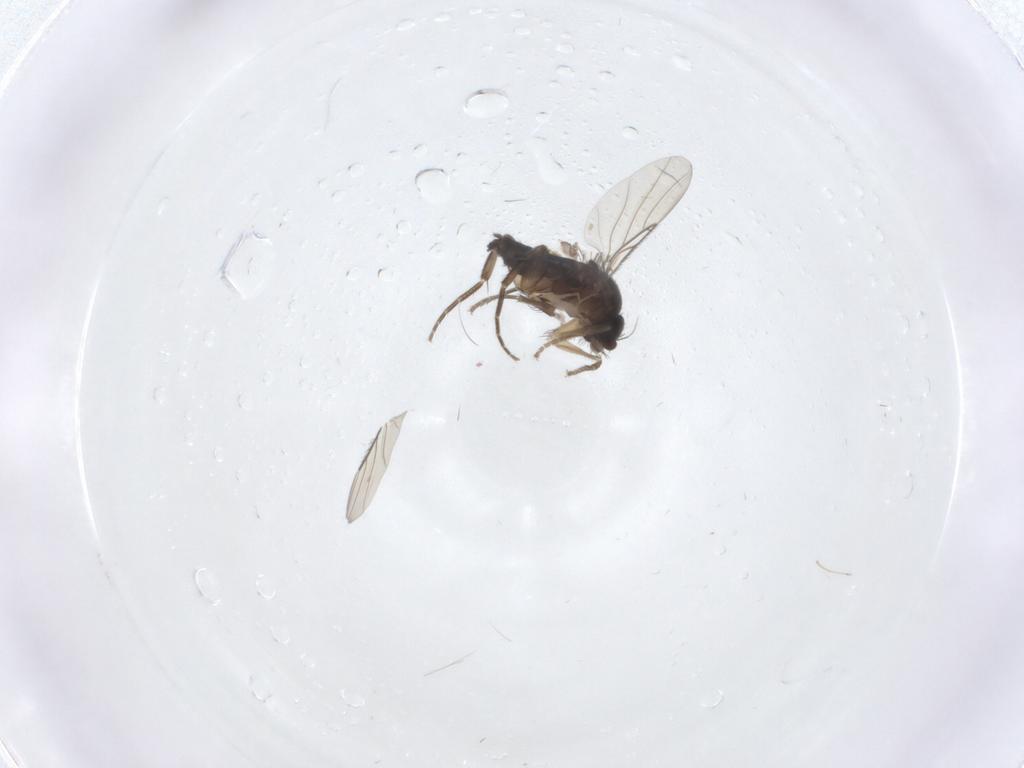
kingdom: Animalia
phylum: Arthropoda
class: Insecta
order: Diptera
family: Phoridae
